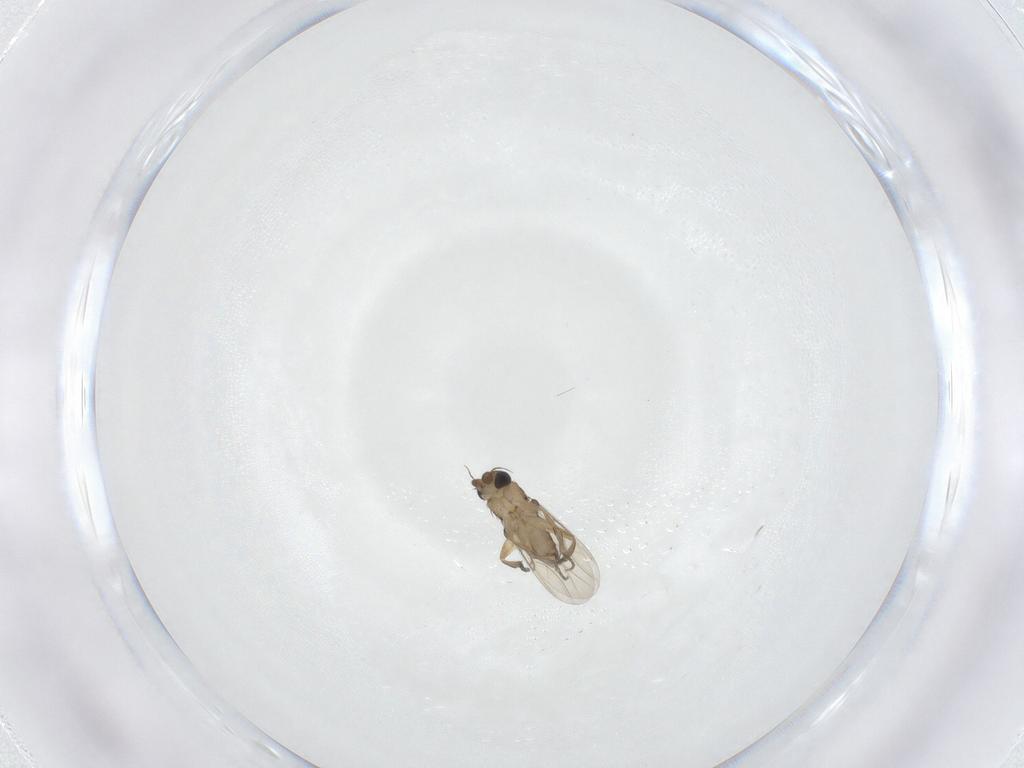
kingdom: Animalia
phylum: Arthropoda
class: Insecta
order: Diptera
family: Phoridae
